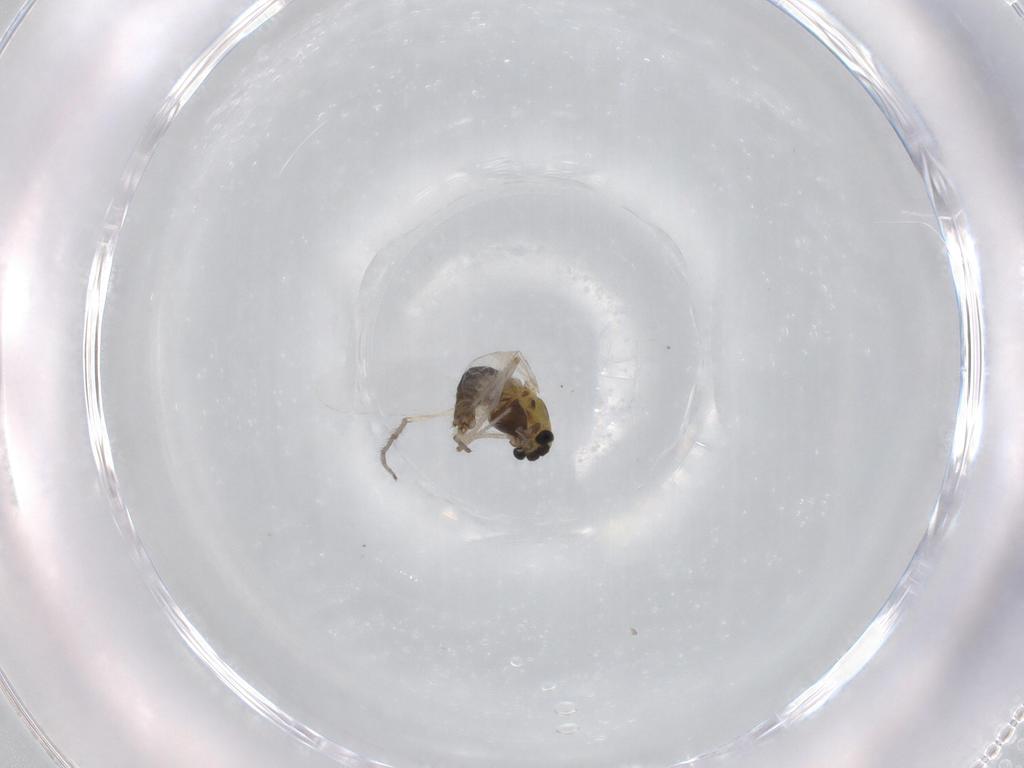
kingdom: Animalia
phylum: Arthropoda
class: Insecta
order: Diptera
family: Chironomidae
